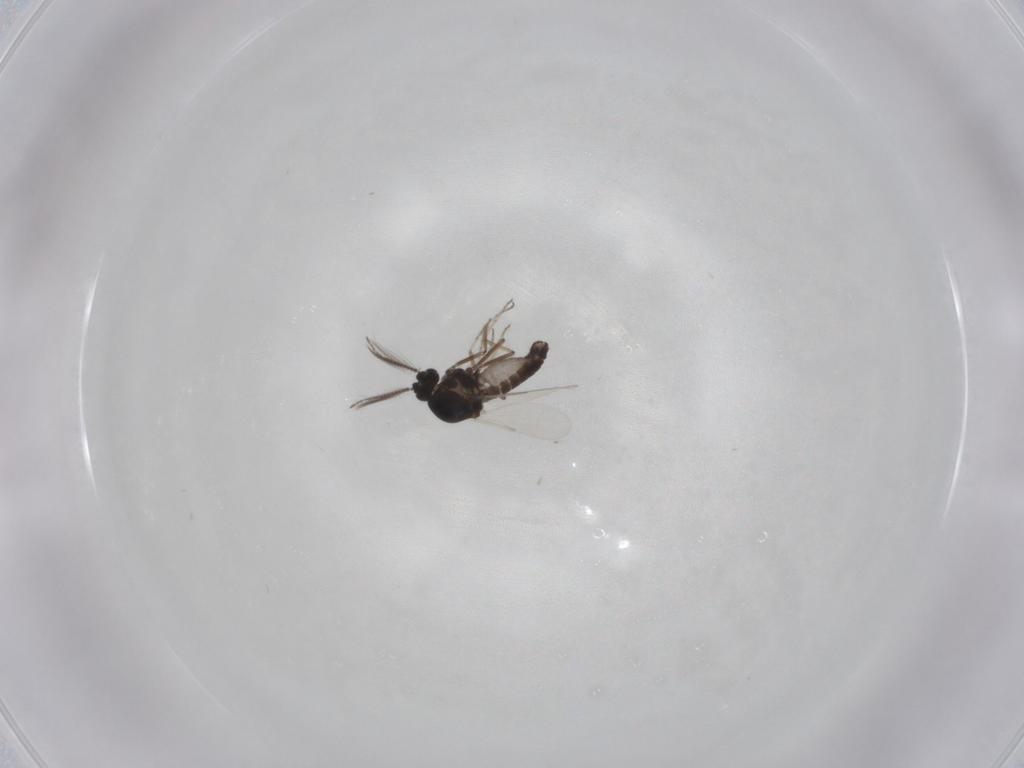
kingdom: Animalia
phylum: Arthropoda
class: Insecta
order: Diptera
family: Ceratopogonidae
